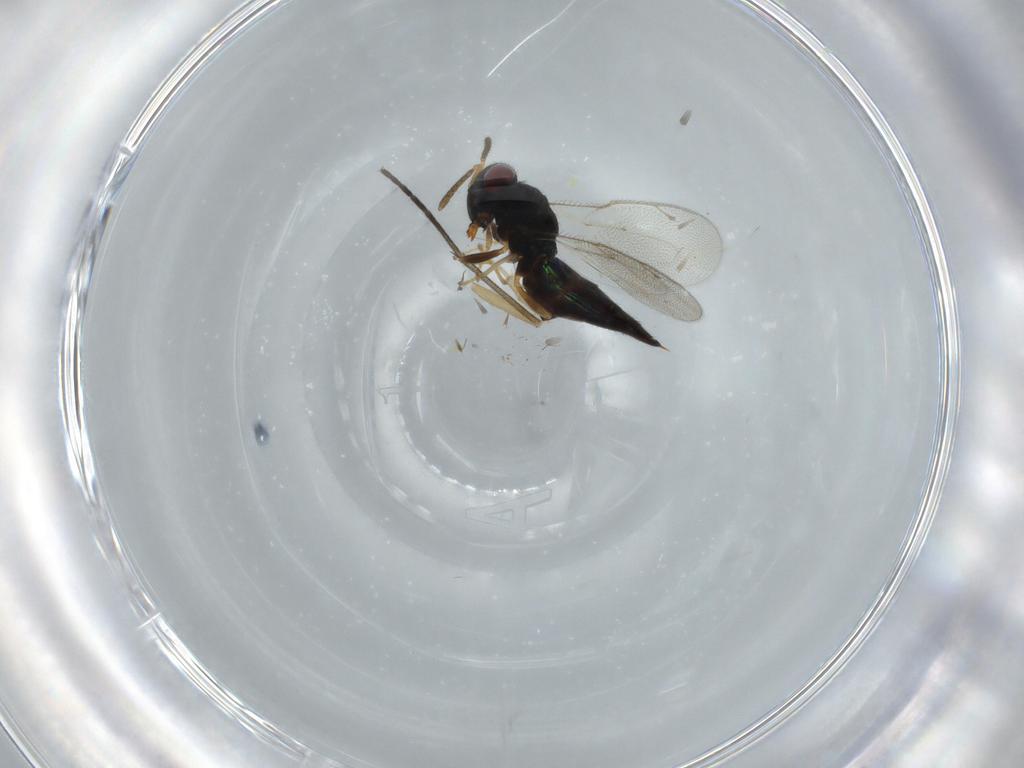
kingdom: Animalia
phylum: Arthropoda
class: Insecta
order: Hymenoptera
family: Pteromalidae
